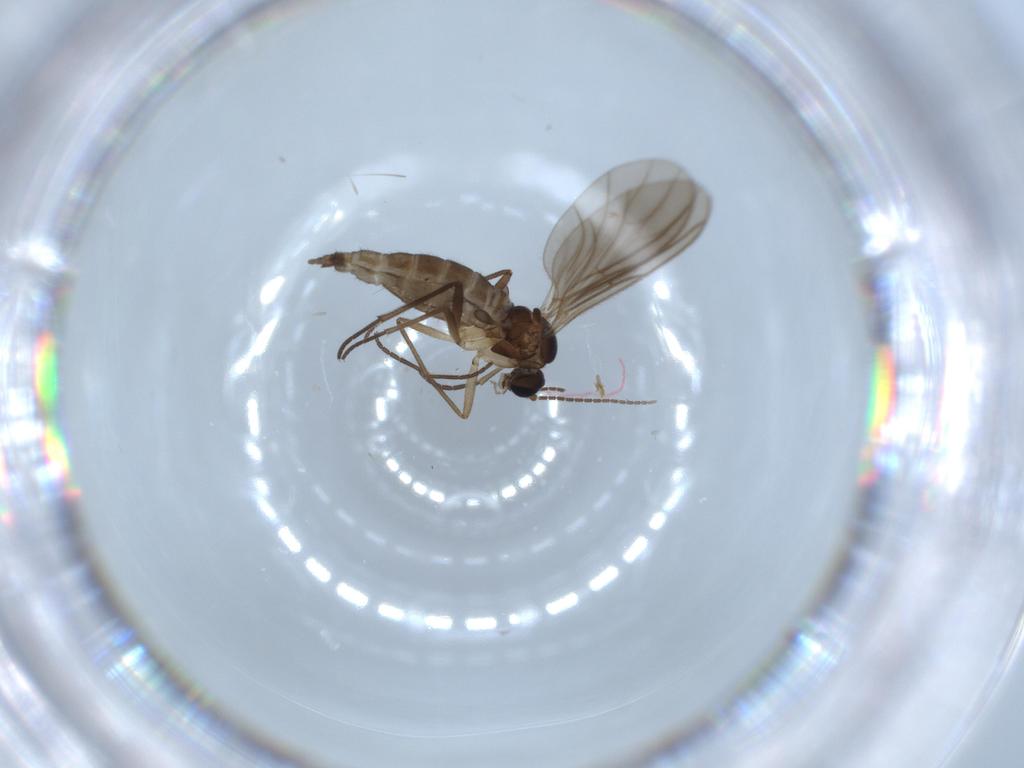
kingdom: Animalia
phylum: Arthropoda
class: Insecta
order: Diptera
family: Sciaridae
